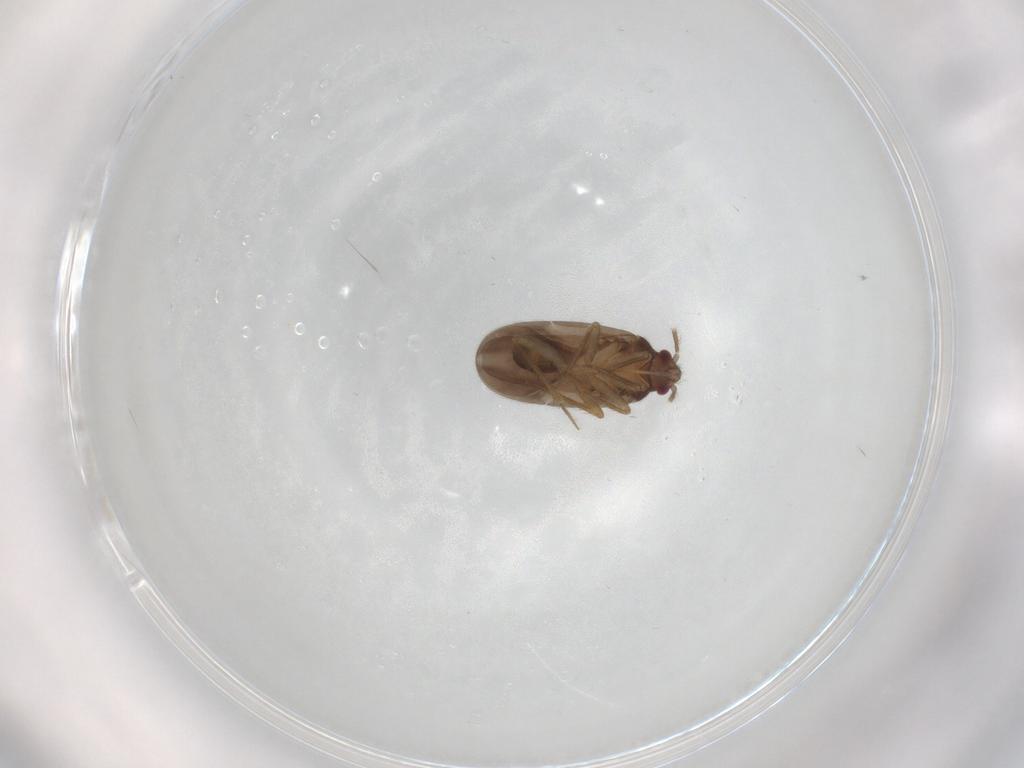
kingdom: Animalia
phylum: Arthropoda
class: Insecta
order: Hemiptera
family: Ceratocombidae
